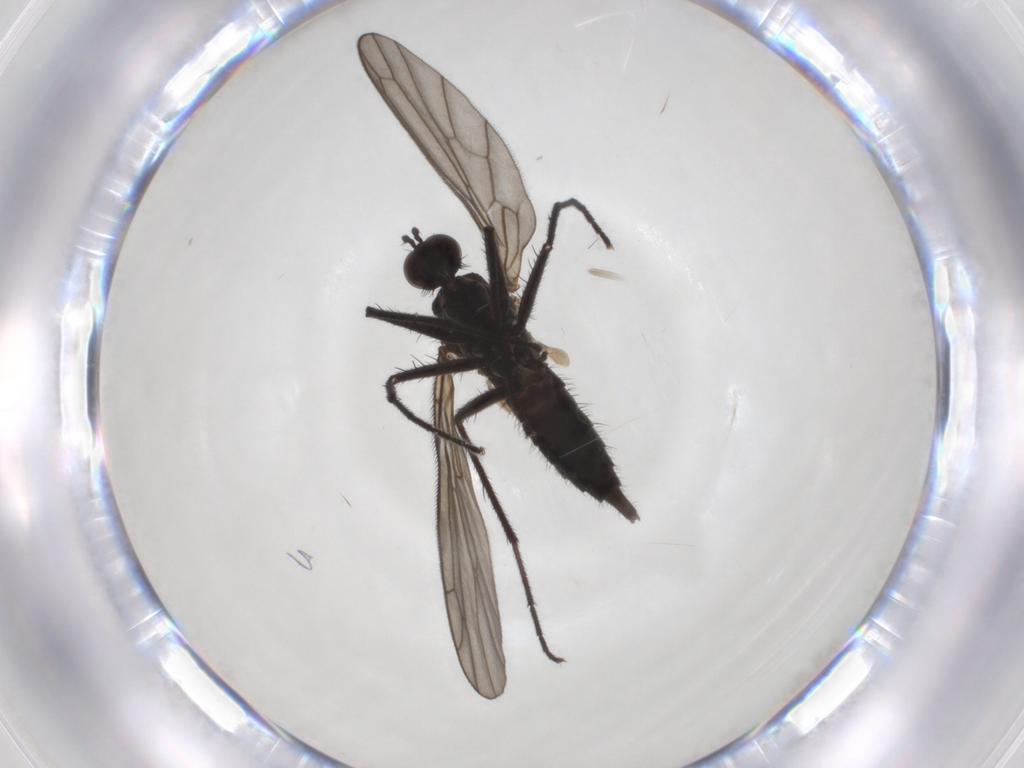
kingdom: Animalia
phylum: Arthropoda
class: Insecta
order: Diptera
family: Empididae
